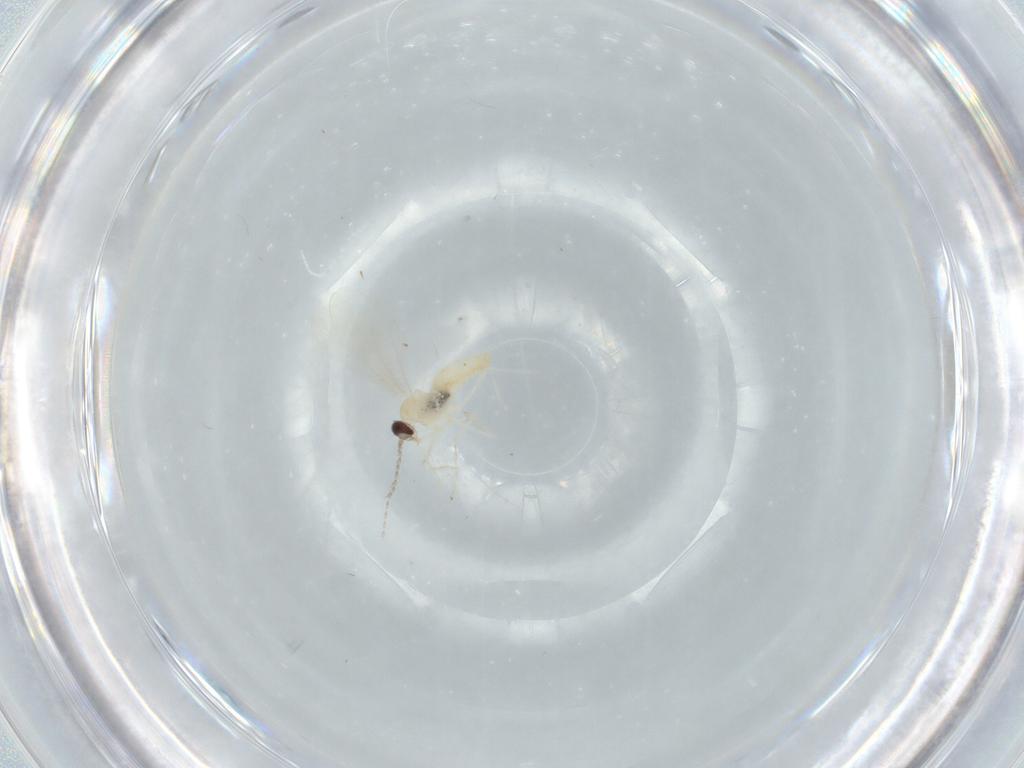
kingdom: Animalia
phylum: Arthropoda
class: Insecta
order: Diptera
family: Cecidomyiidae
